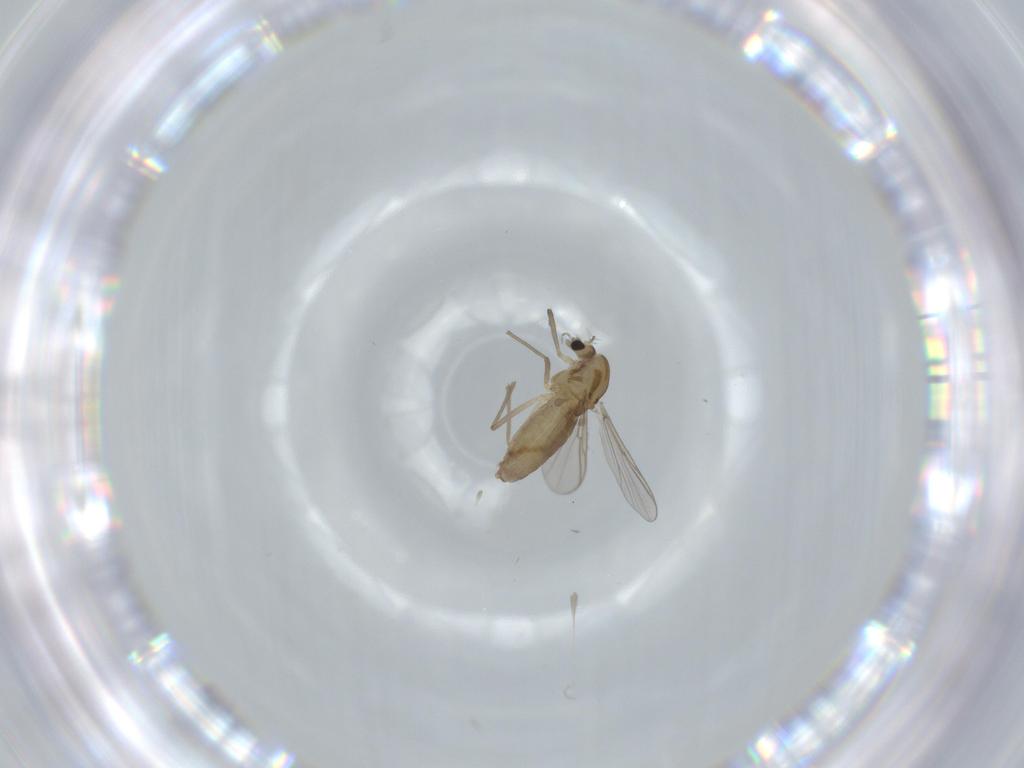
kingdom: Animalia
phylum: Arthropoda
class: Insecta
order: Diptera
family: Chironomidae
